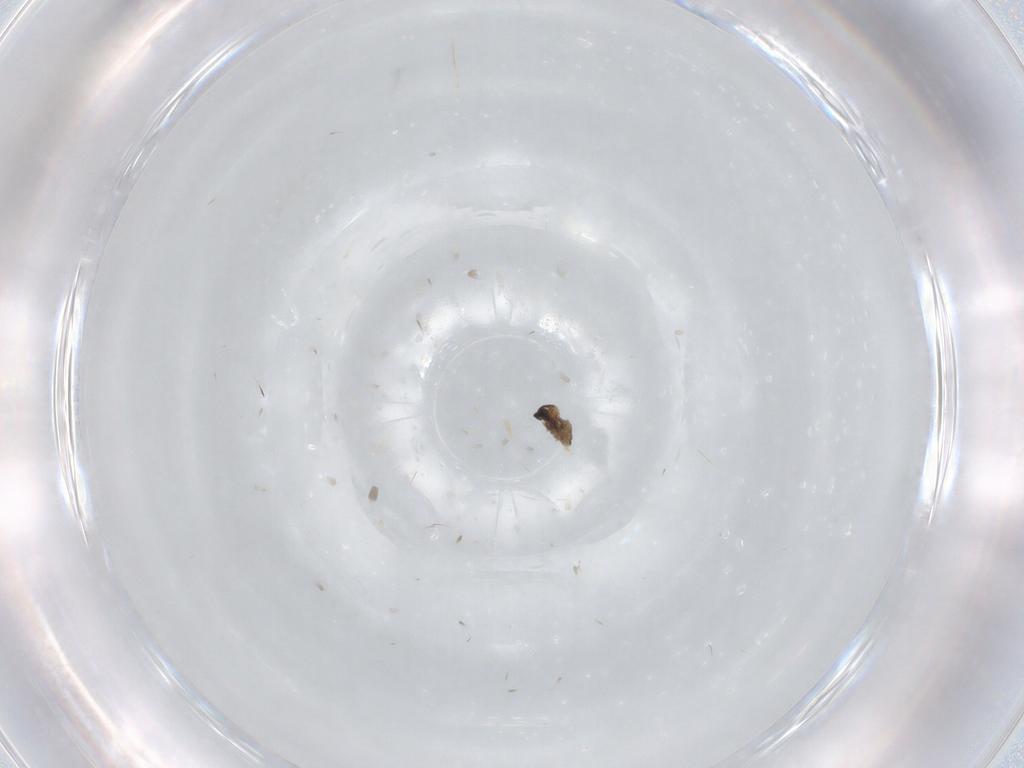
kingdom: Animalia
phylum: Arthropoda
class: Insecta
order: Diptera
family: Cecidomyiidae
